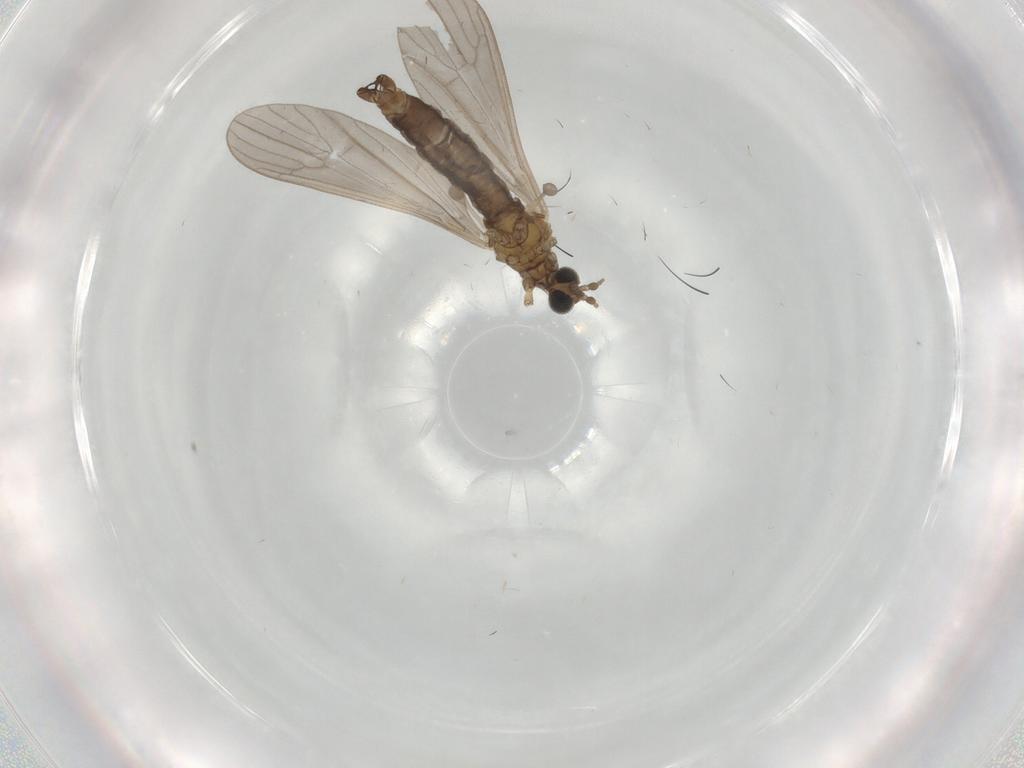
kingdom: Animalia
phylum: Arthropoda
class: Insecta
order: Diptera
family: Limoniidae
